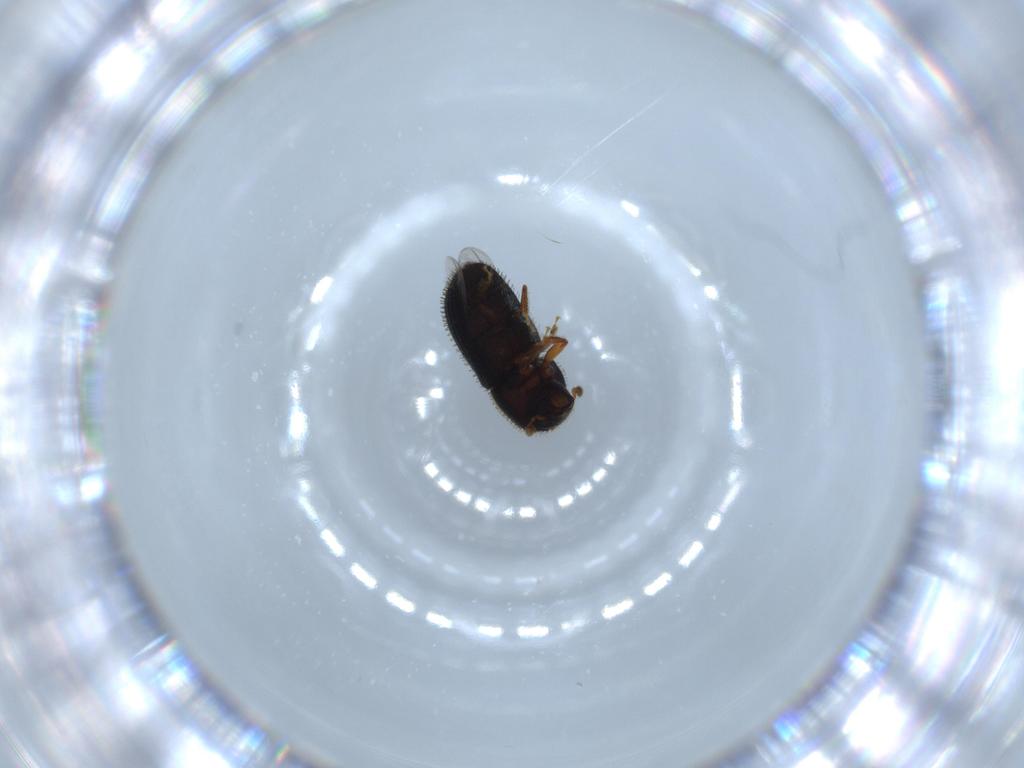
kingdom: Animalia
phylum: Arthropoda
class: Insecta
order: Coleoptera
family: Curculionidae
